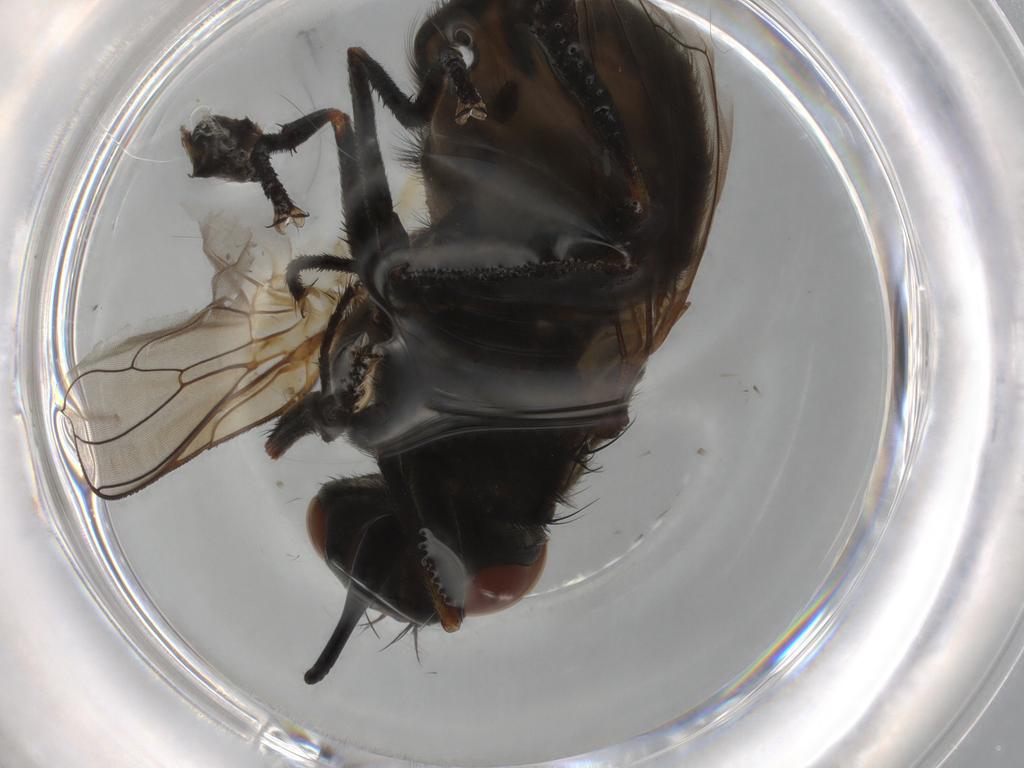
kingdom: Animalia
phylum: Arthropoda
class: Insecta
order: Diptera
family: Muscidae
